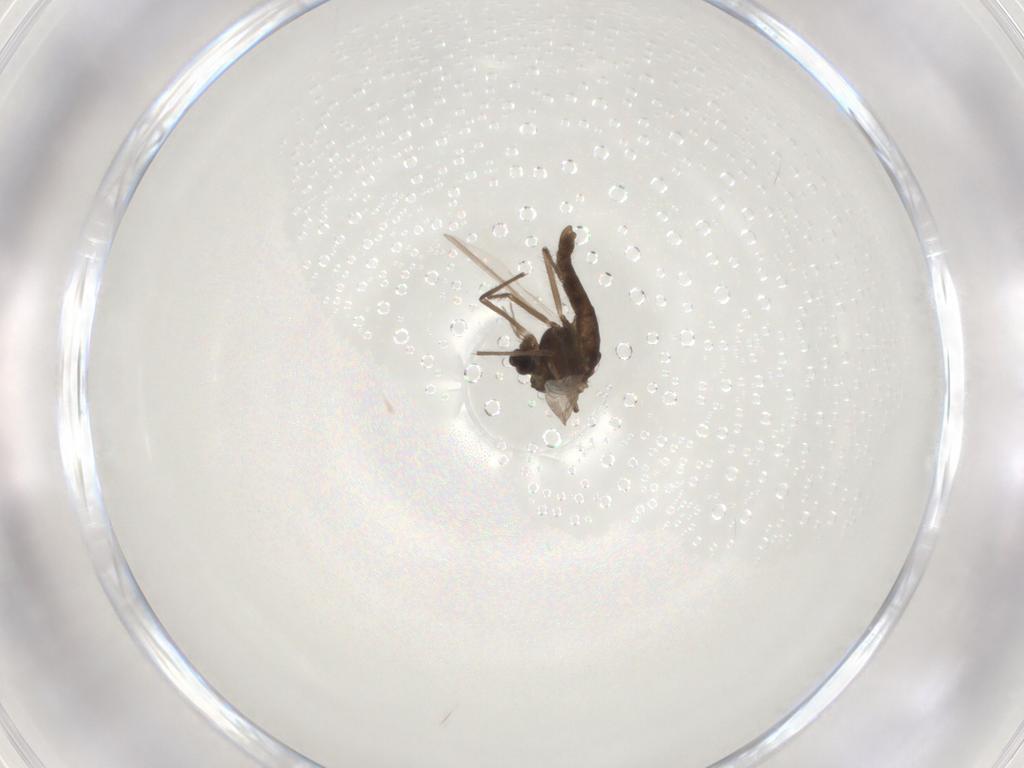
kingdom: Animalia
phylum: Arthropoda
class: Insecta
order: Diptera
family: Chironomidae
